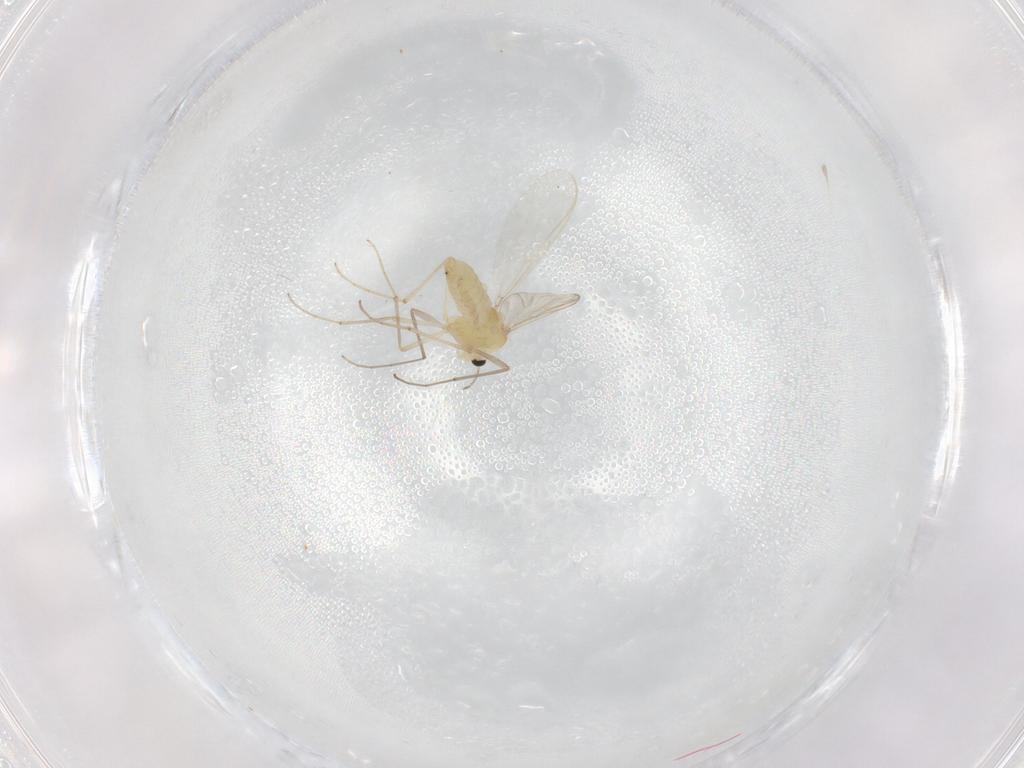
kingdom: Animalia
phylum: Arthropoda
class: Insecta
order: Diptera
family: Chironomidae
